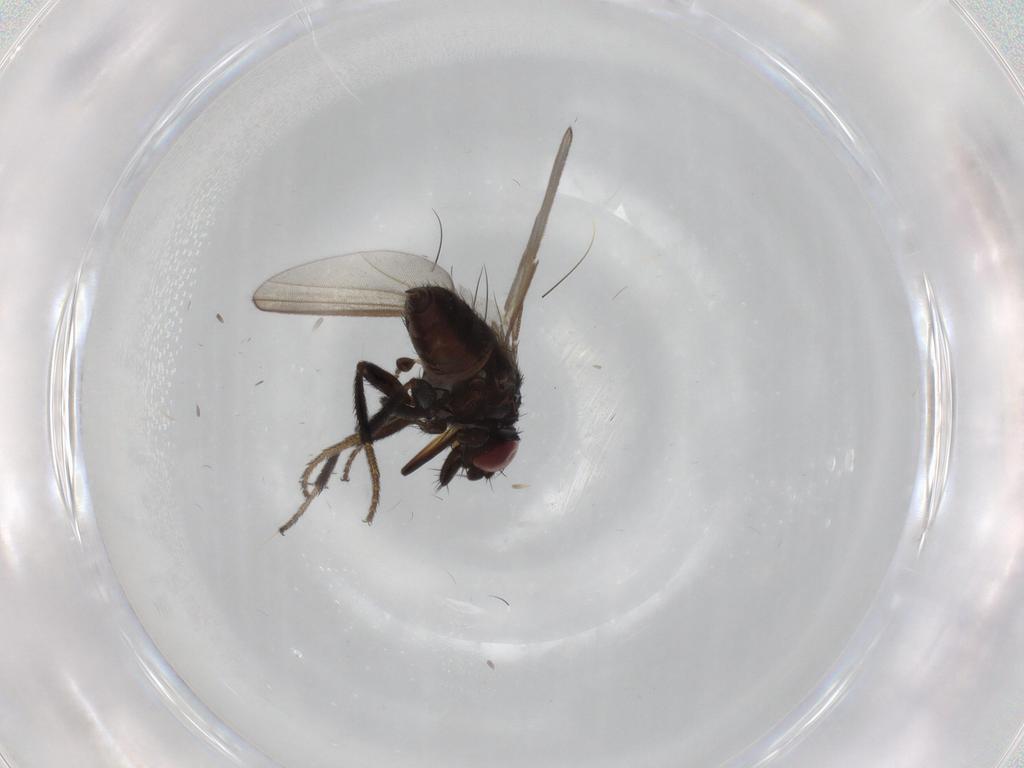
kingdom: Animalia
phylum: Arthropoda
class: Insecta
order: Diptera
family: Milichiidae
